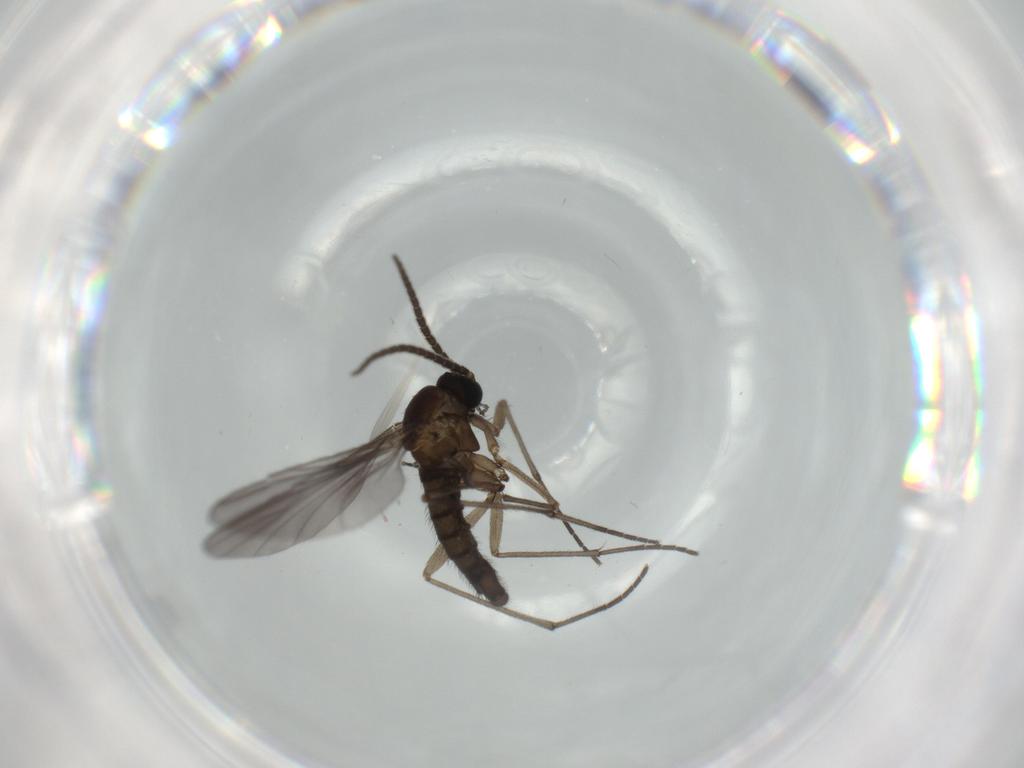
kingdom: Animalia
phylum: Arthropoda
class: Insecta
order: Diptera
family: Sciaridae
